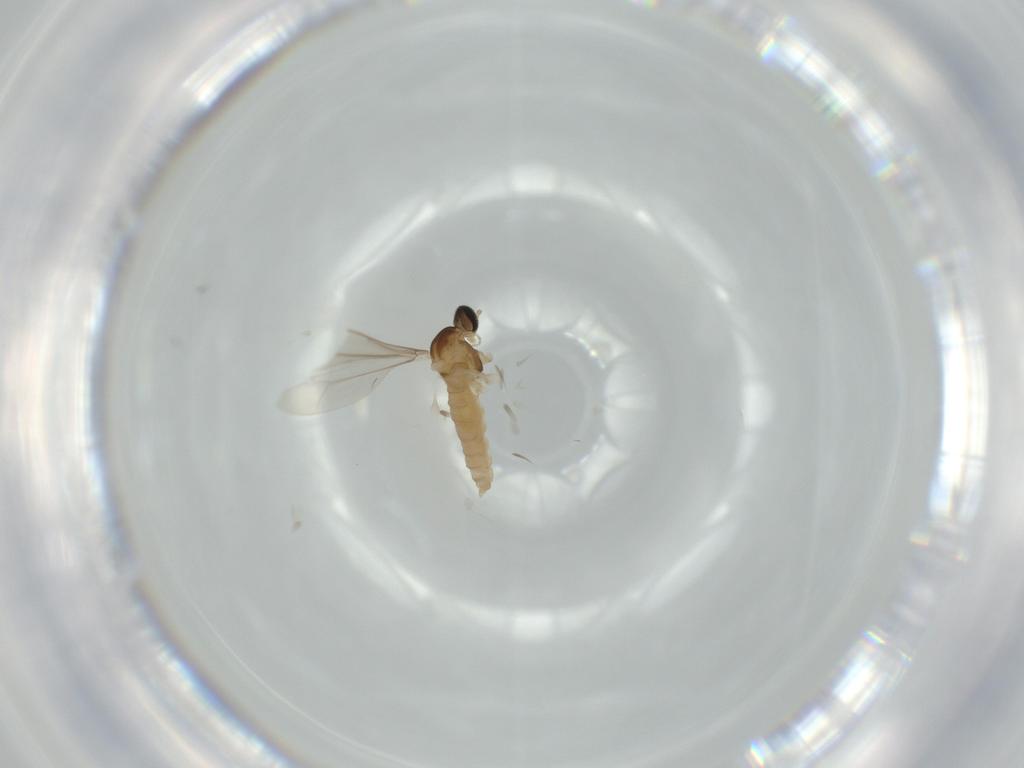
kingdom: Animalia
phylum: Arthropoda
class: Insecta
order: Diptera
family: Cecidomyiidae
